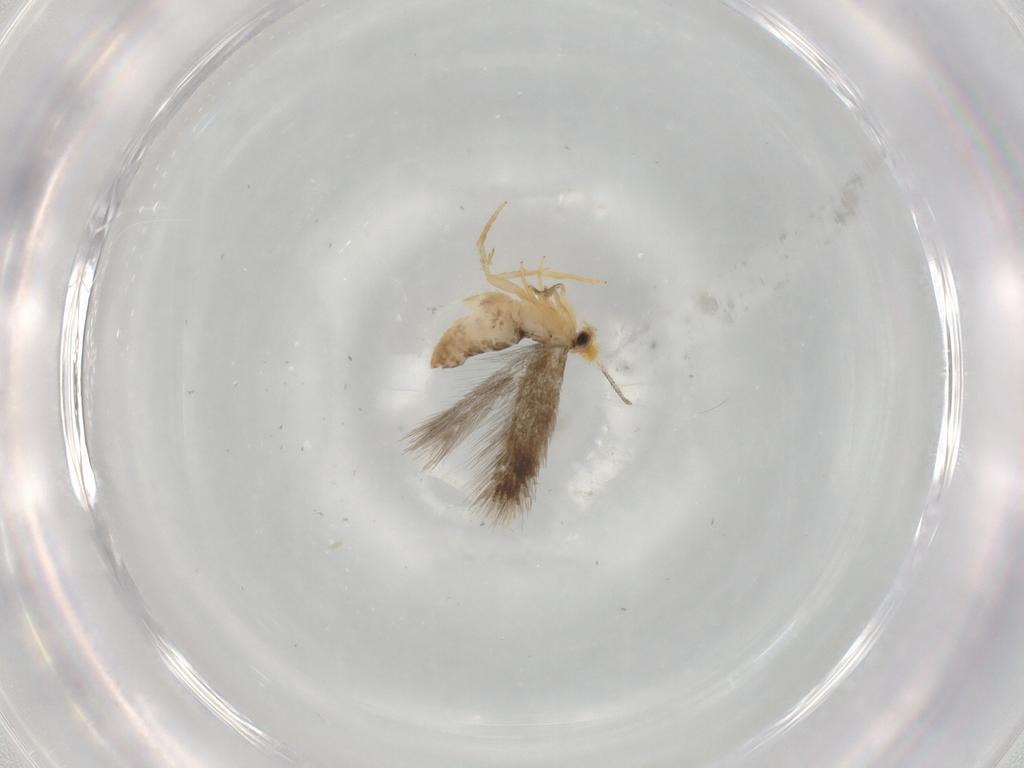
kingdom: Animalia
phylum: Arthropoda
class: Insecta
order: Lepidoptera
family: Nepticulidae
